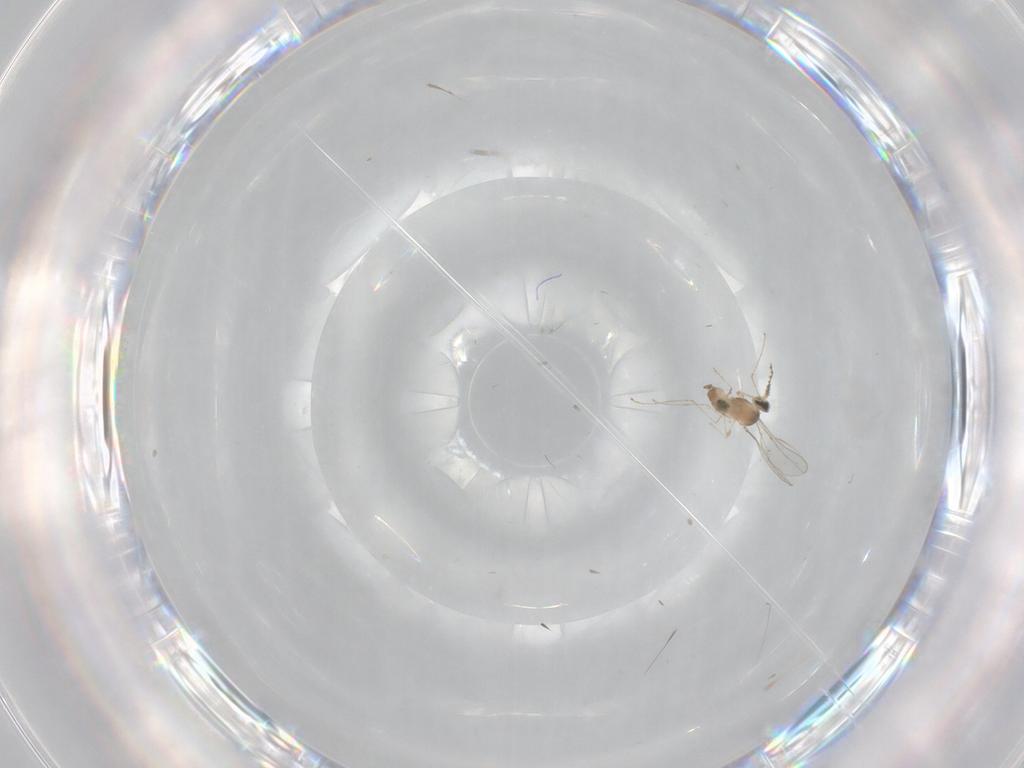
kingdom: Animalia
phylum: Arthropoda
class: Insecta
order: Diptera
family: Cecidomyiidae
